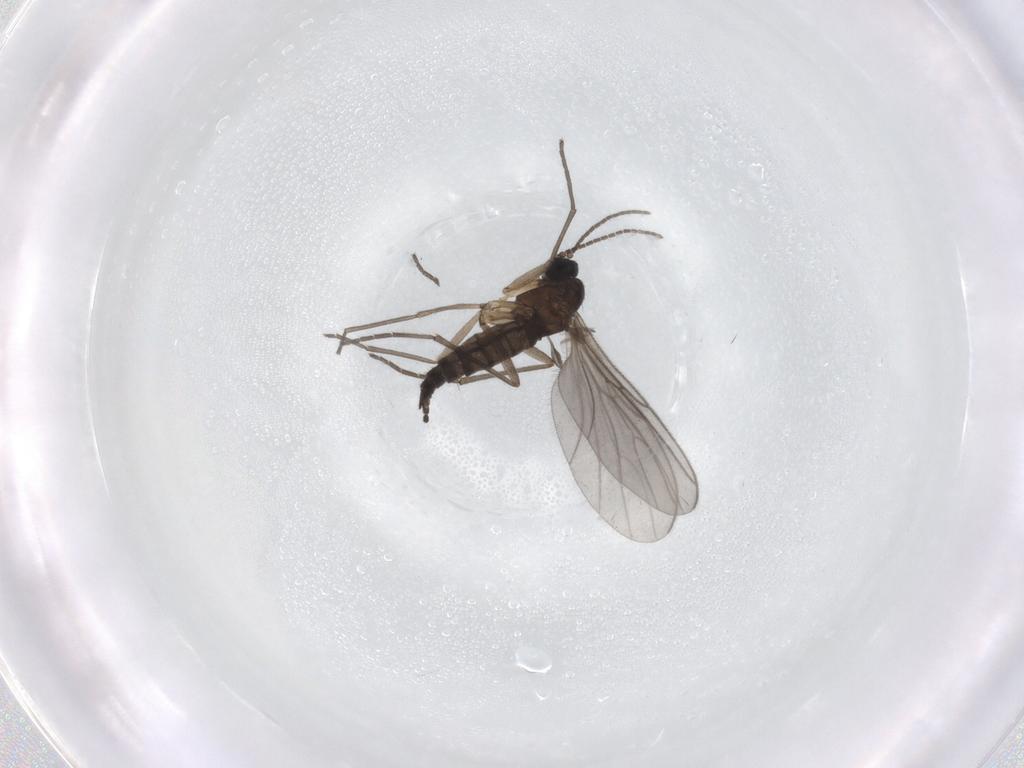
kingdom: Animalia
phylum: Arthropoda
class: Insecta
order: Diptera
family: Sciaridae
